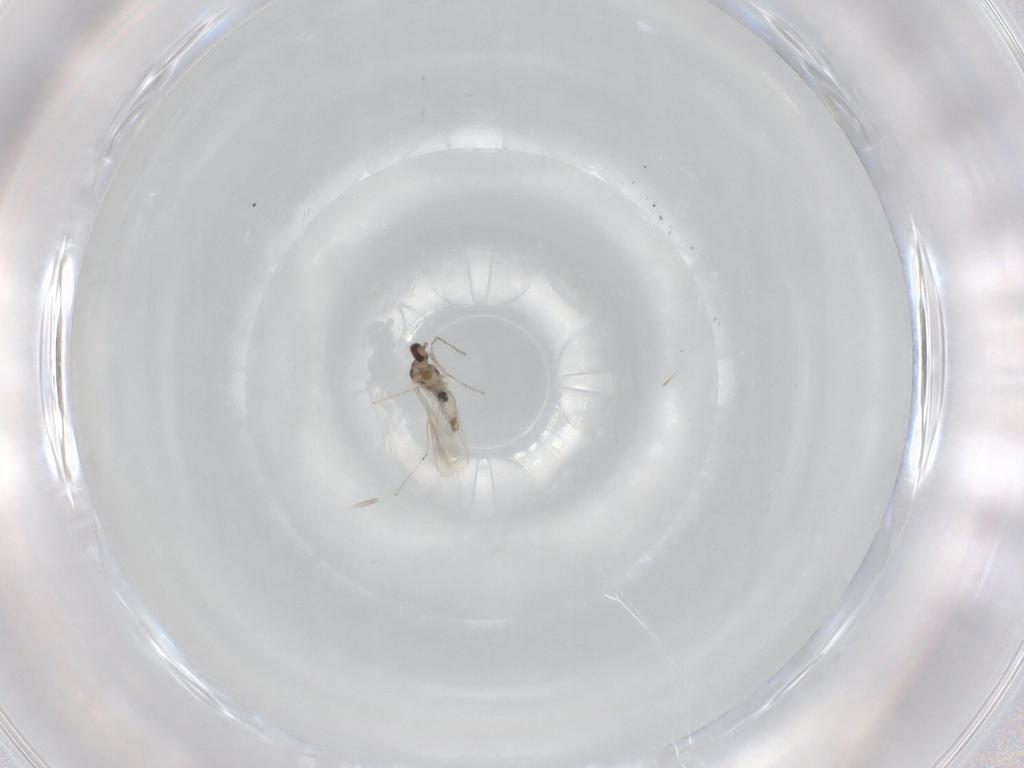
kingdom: Animalia
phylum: Arthropoda
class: Insecta
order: Diptera
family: Cecidomyiidae
